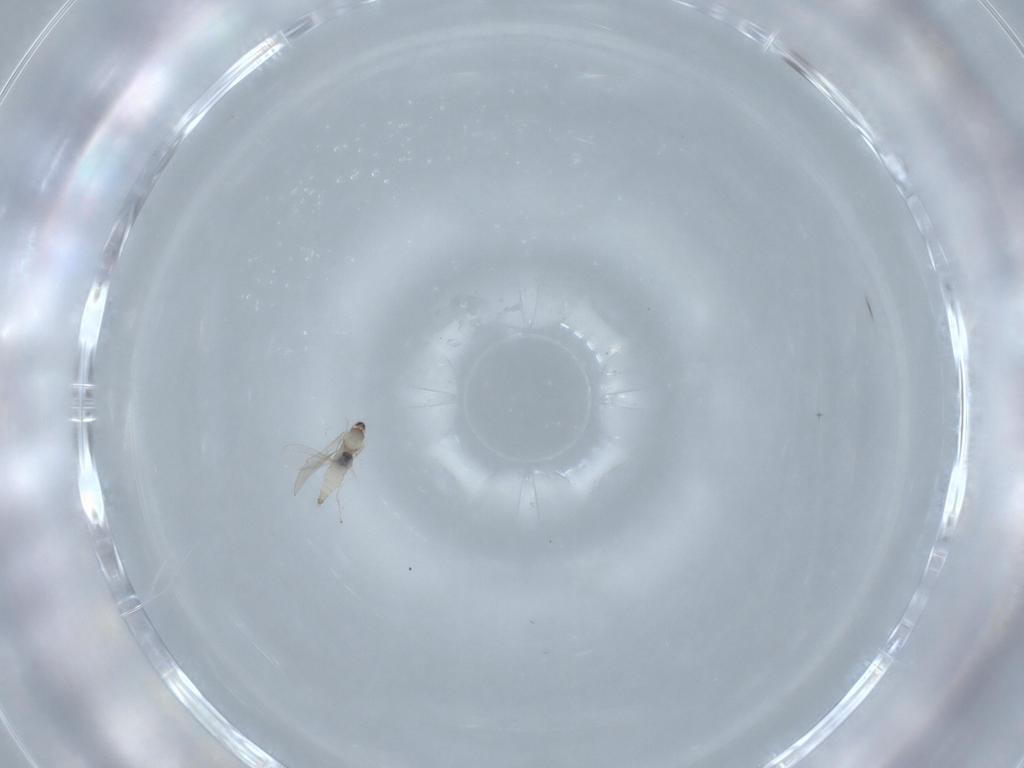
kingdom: Animalia
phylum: Arthropoda
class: Insecta
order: Diptera
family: Cecidomyiidae
